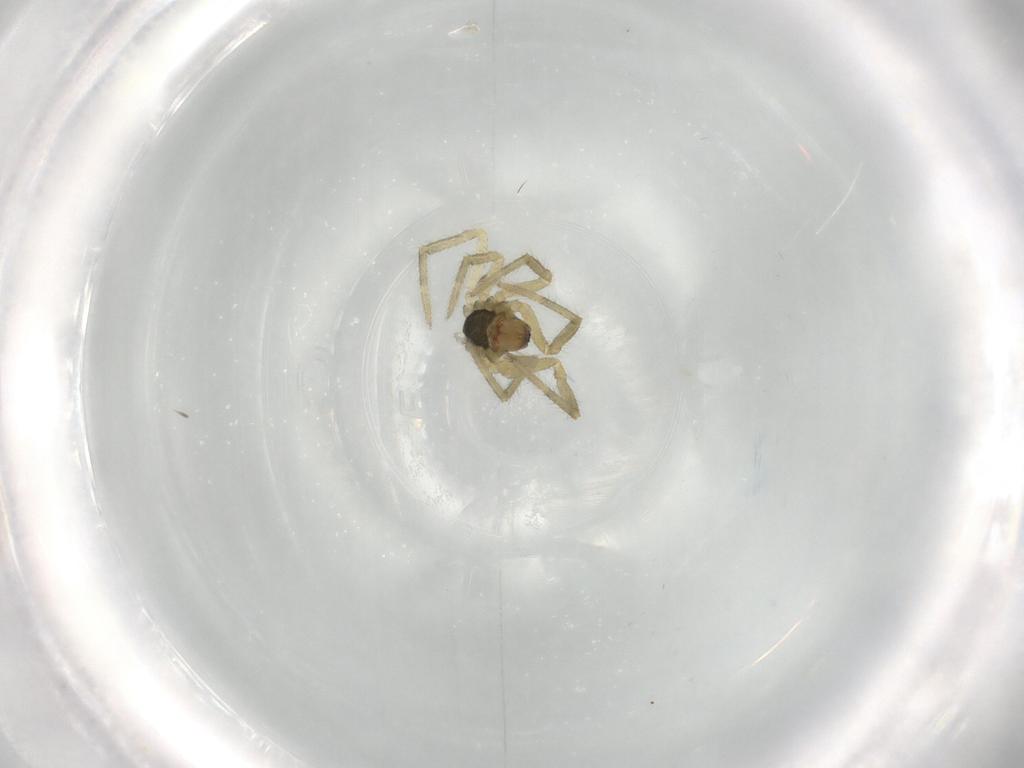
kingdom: Animalia
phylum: Arthropoda
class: Arachnida
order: Araneae
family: Nesticidae
